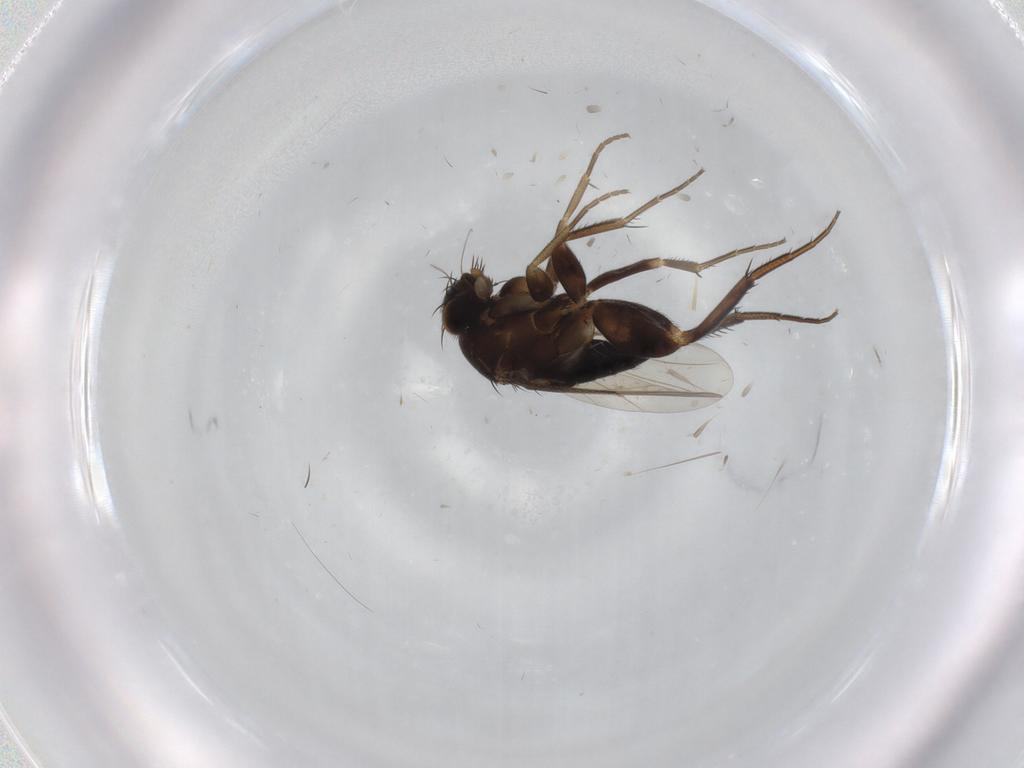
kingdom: Animalia
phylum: Arthropoda
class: Insecta
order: Diptera
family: Phoridae
